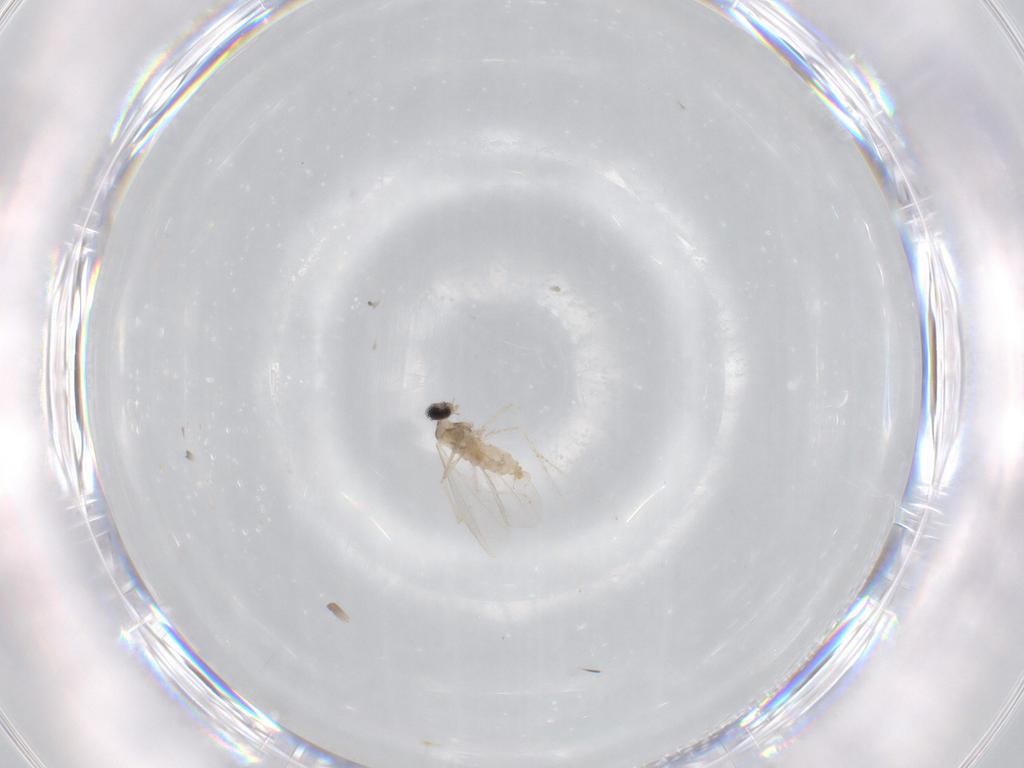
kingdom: Animalia
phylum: Arthropoda
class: Insecta
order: Diptera
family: Cecidomyiidae
